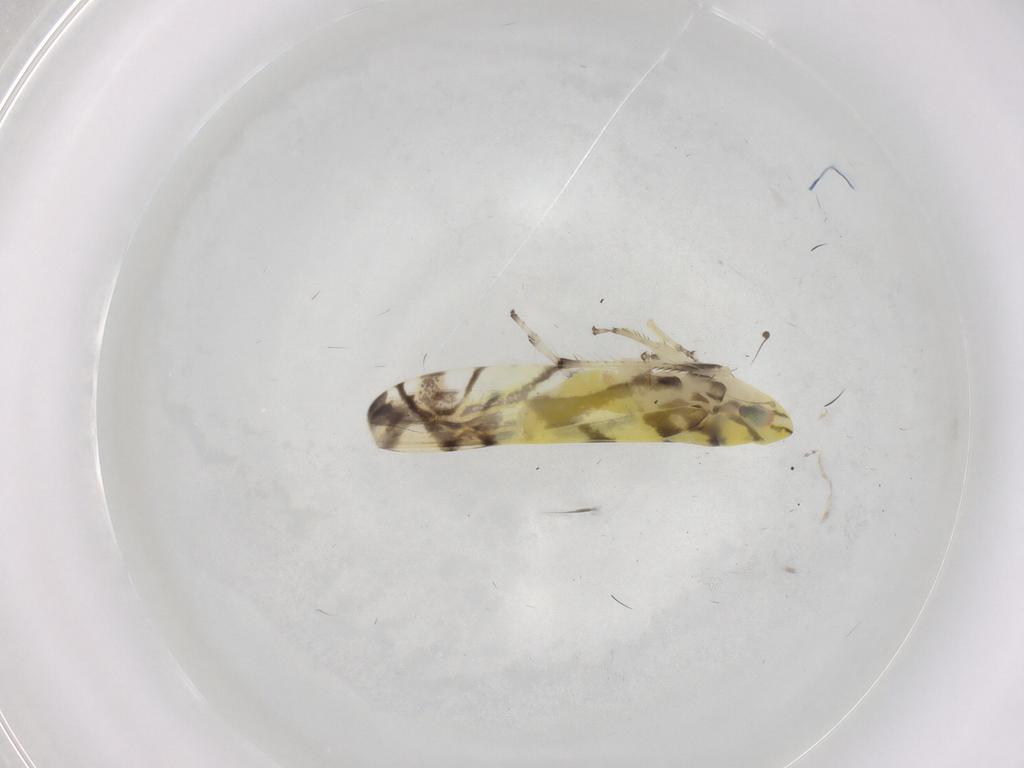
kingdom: Animalia
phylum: Arthropoda
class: Insecta
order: Hemiptera
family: Cicadellidae
